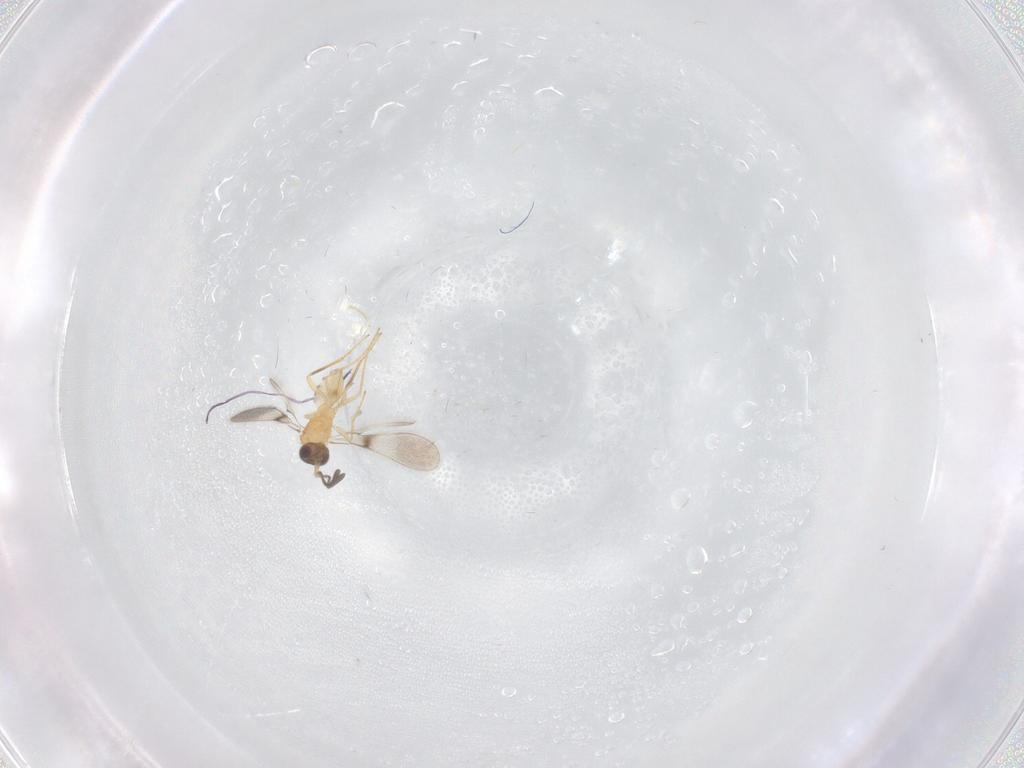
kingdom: Animalia
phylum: Arthropoda
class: Insecta
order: Hymenoptera
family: Mymaridae
